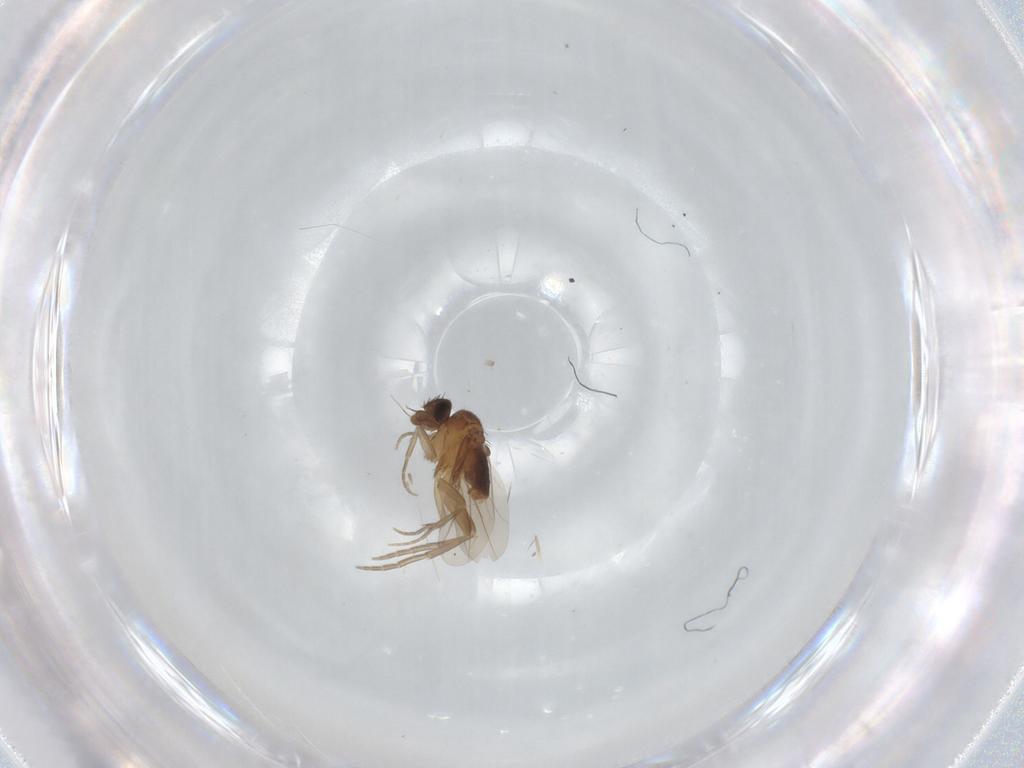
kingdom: Animalia
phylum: Arthropoda
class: Insecta
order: Diptera
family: Phoridae
